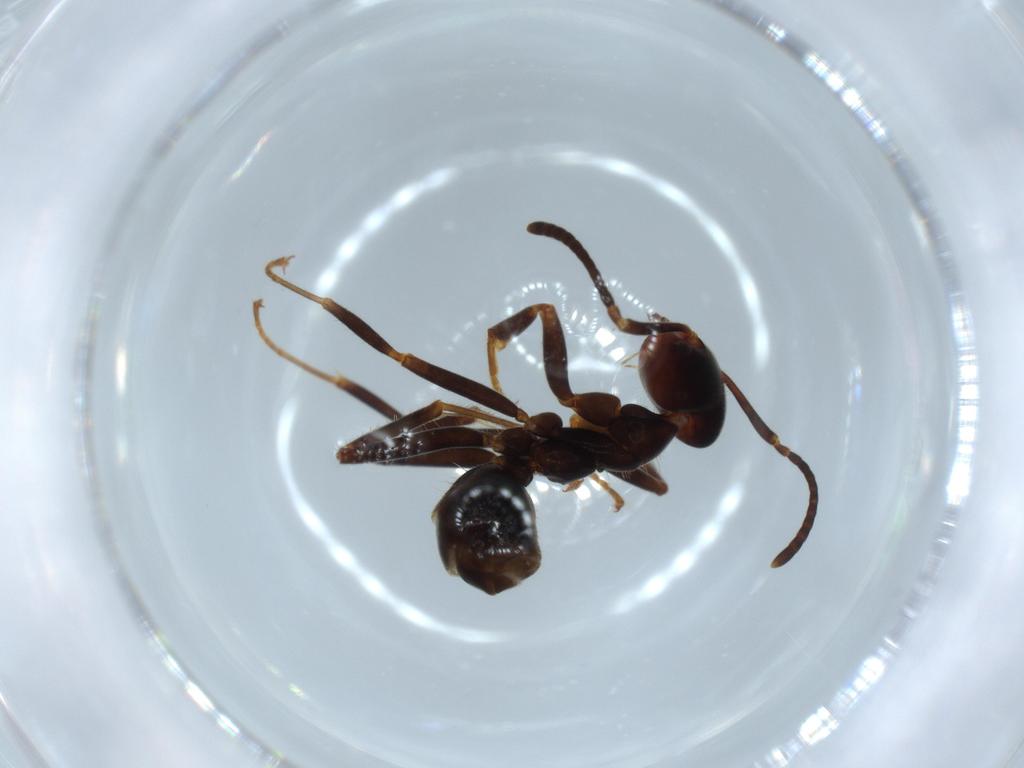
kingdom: Animalia
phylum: Arthropoda
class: Insecta
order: Hymenoptera
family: Formicidae
